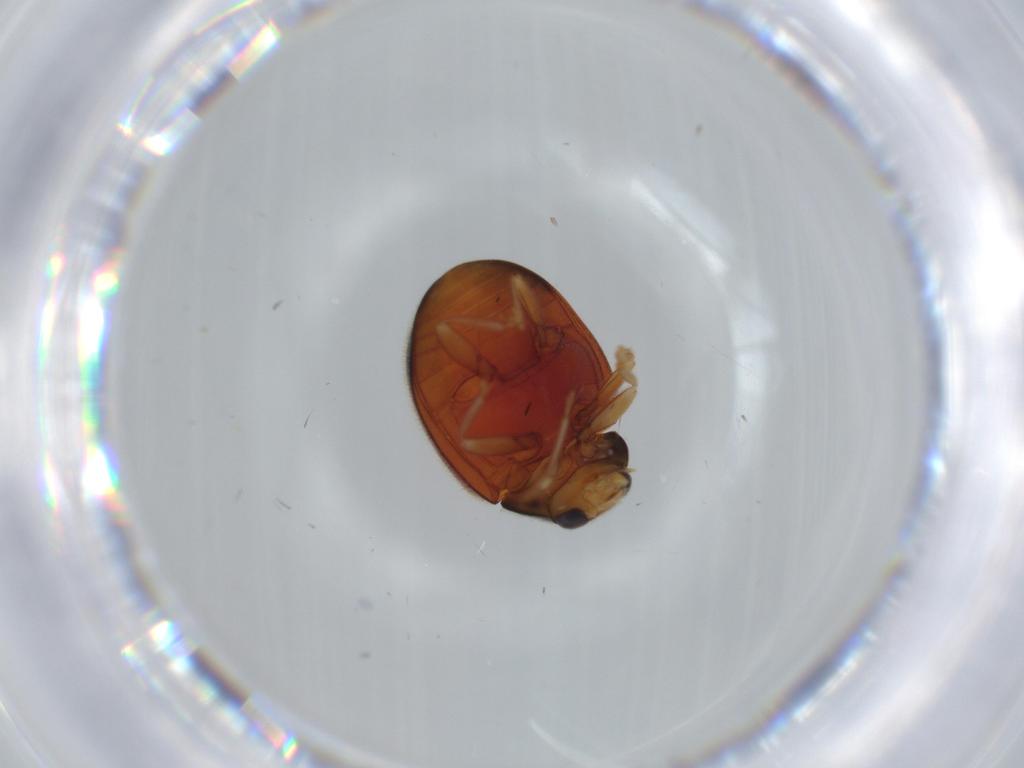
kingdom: Animalia
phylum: Arthropoda
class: Insecta
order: Coleoptera
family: Coccinellidae
